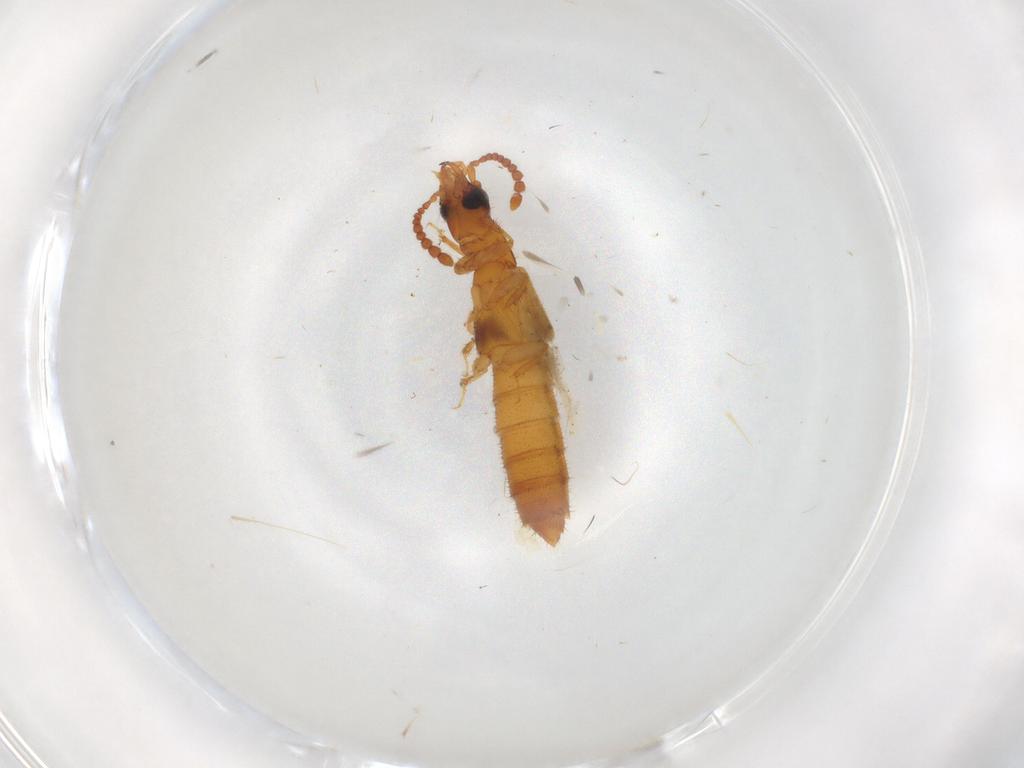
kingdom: Animalia
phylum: Arthropoda
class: Insecta
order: Coleoptera
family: Staphylinidae
